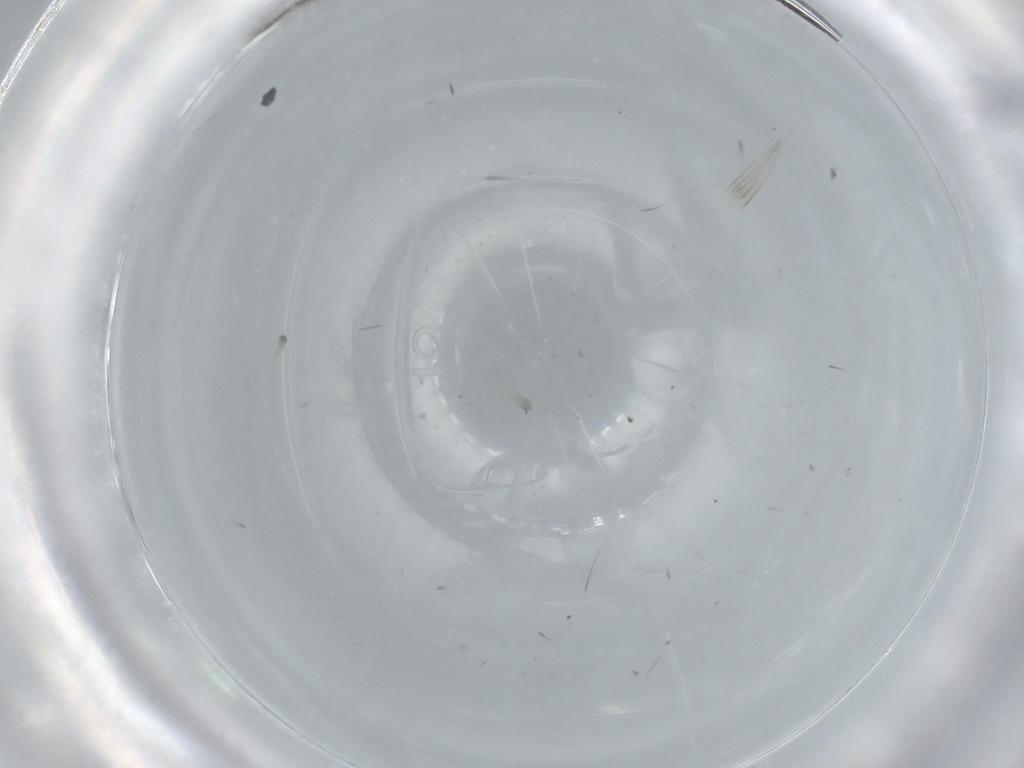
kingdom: Animalia
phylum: Arthropoda
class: Insecta
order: Diptera
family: Mycetophilidae
